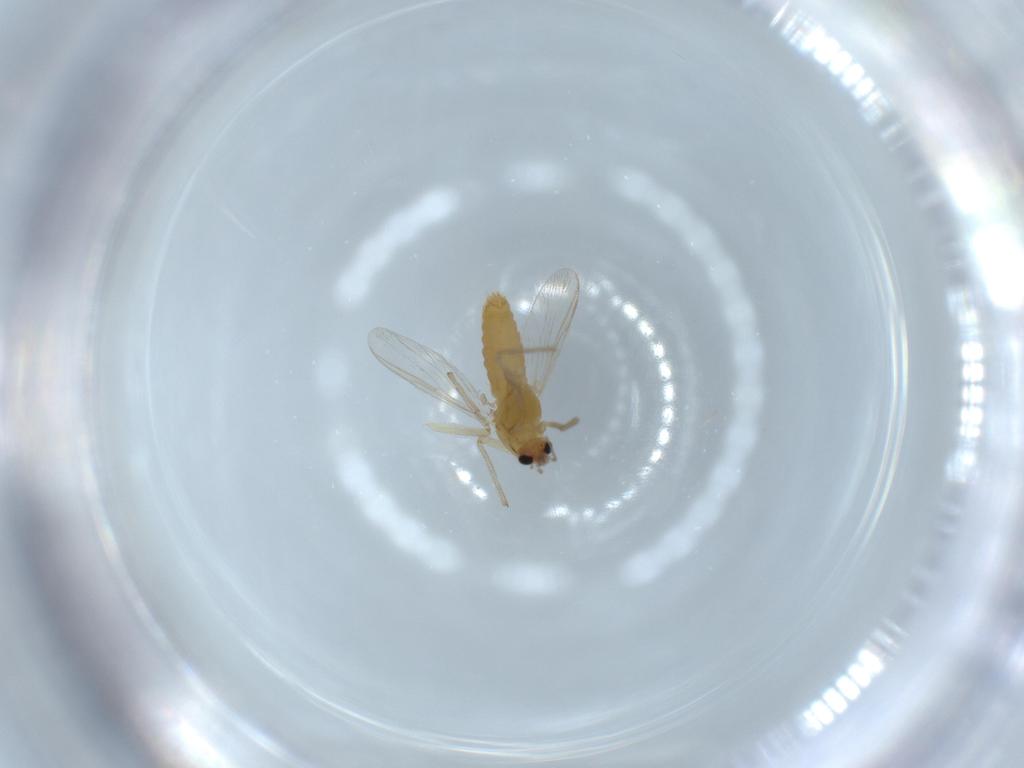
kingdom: Animalia
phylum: Arthropoda
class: Insecta
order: Diptera
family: Chironomidae
